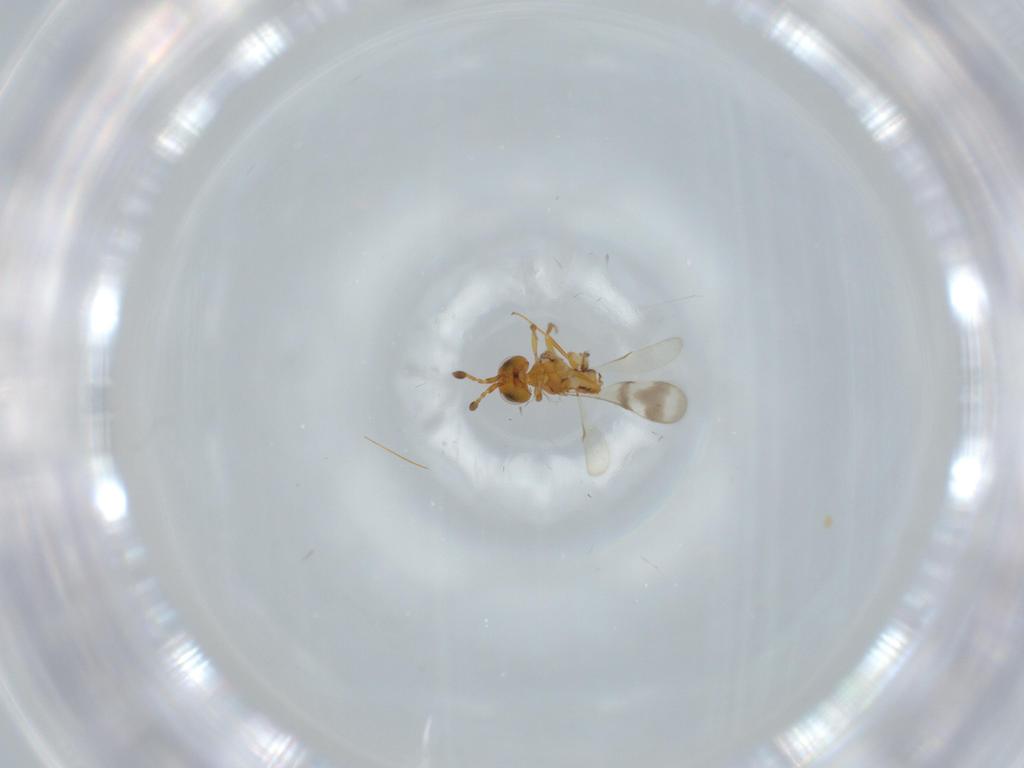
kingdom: Animalia
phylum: Arthropoda
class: Insecta
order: Hymenoptera
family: Scelionidae
